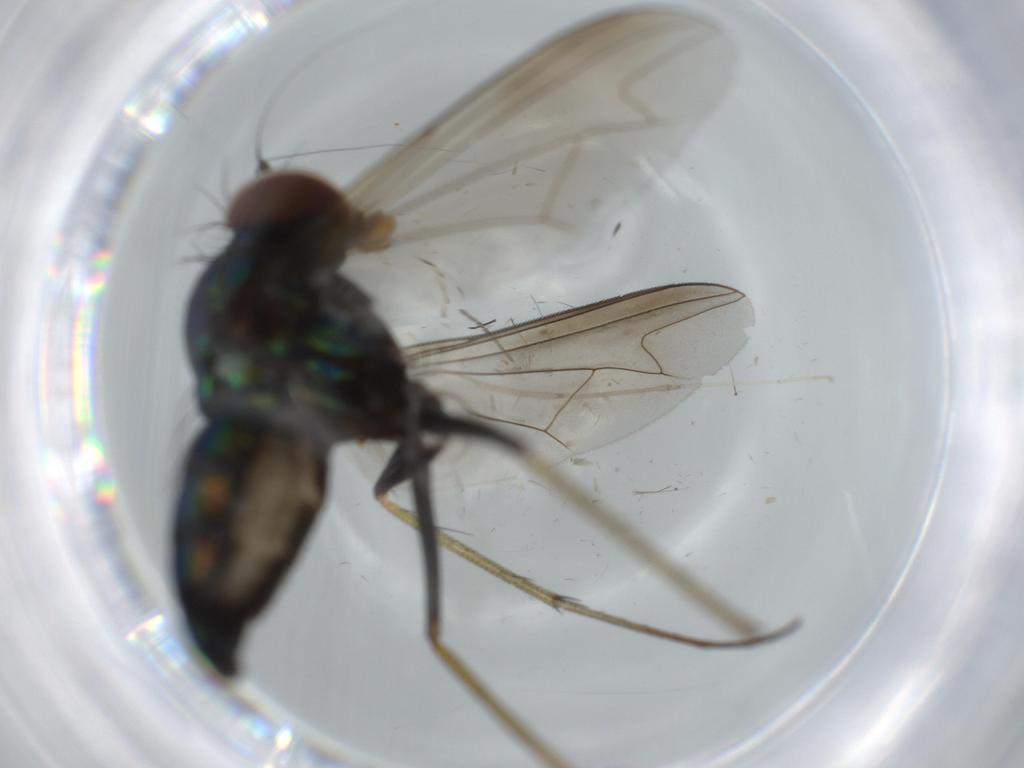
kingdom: Animalia
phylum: Arthropoda
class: Insecta
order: Diptera
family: Dolichopodidae
